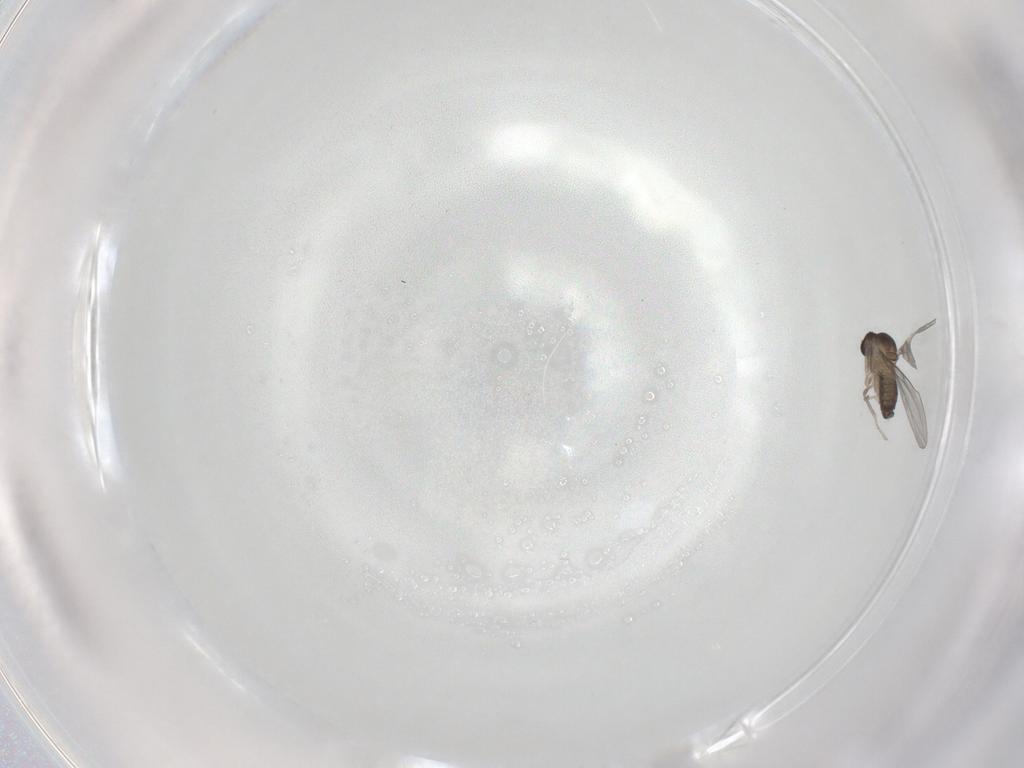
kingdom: Animalia
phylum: Arthropoda
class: Insecta
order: Diptera
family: Cecidomyiidae
